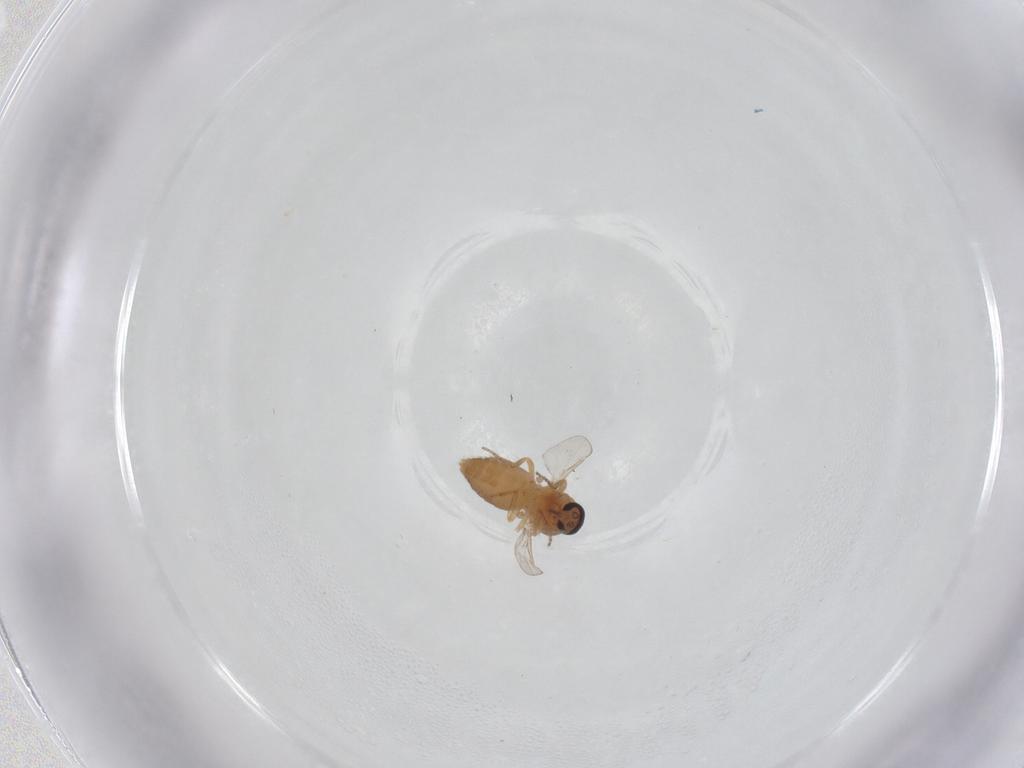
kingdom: Animalia
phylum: Arthropoda
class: Insecta
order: Diptera
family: Ceratopogonidae
